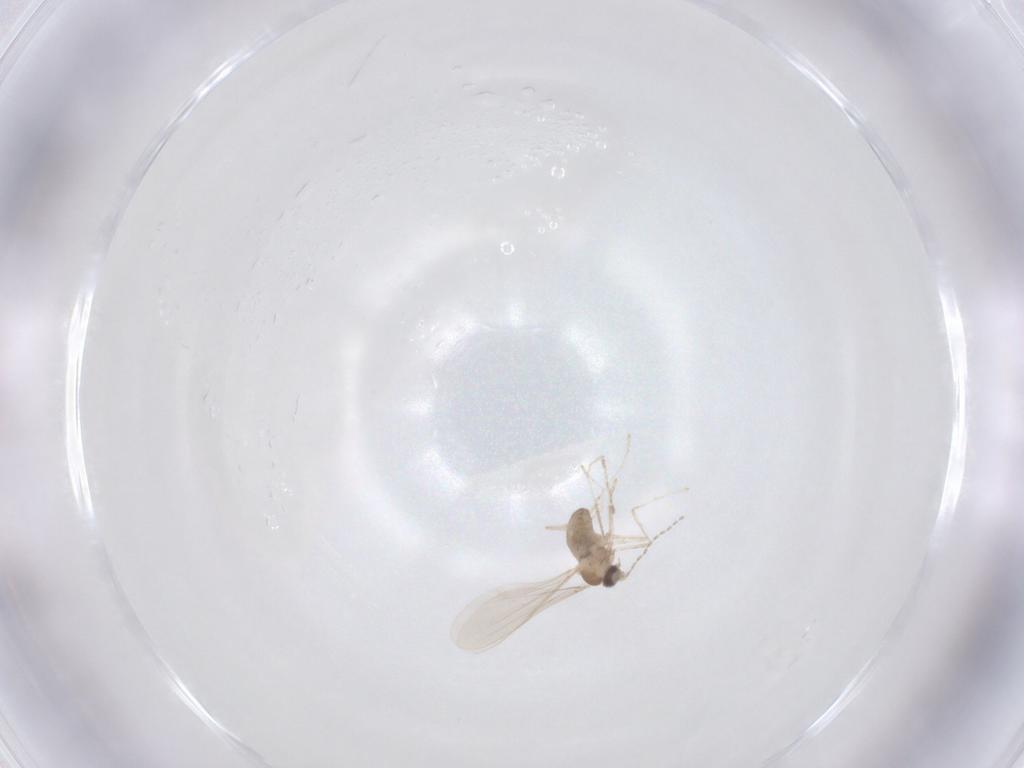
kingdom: Animalia
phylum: Arthropoda
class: Insecta
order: Diptera
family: Cecidomyiidae
